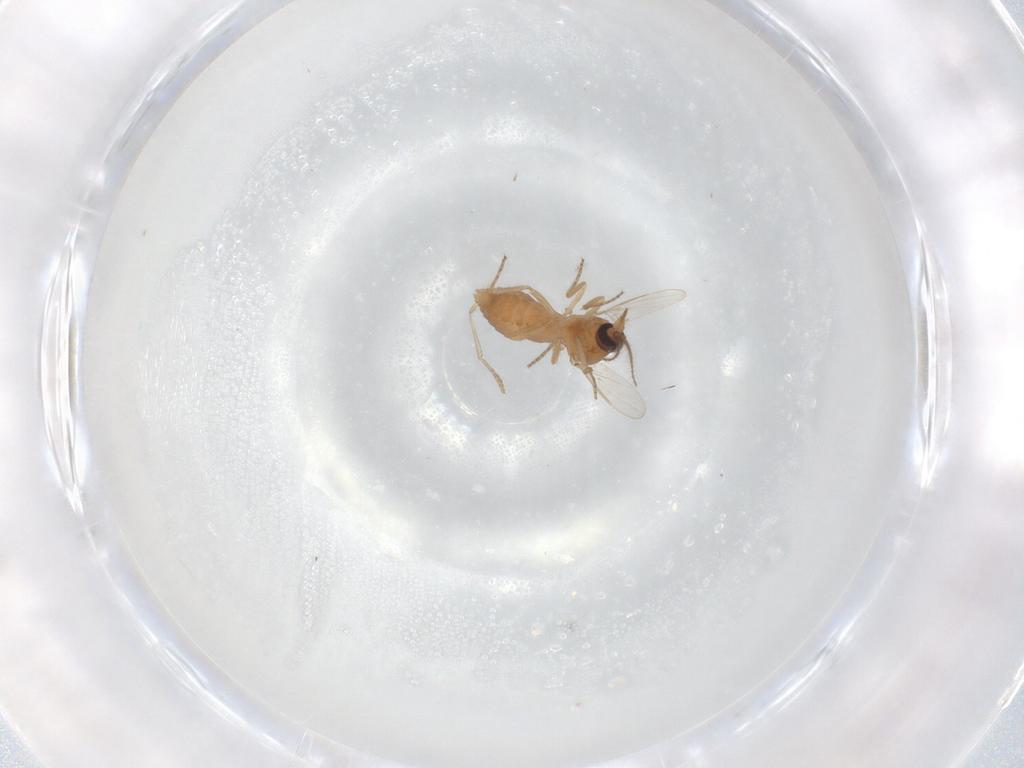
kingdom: Animalia
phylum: Arthropoda
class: Insecta
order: Diptera
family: Ceratopogonidae
